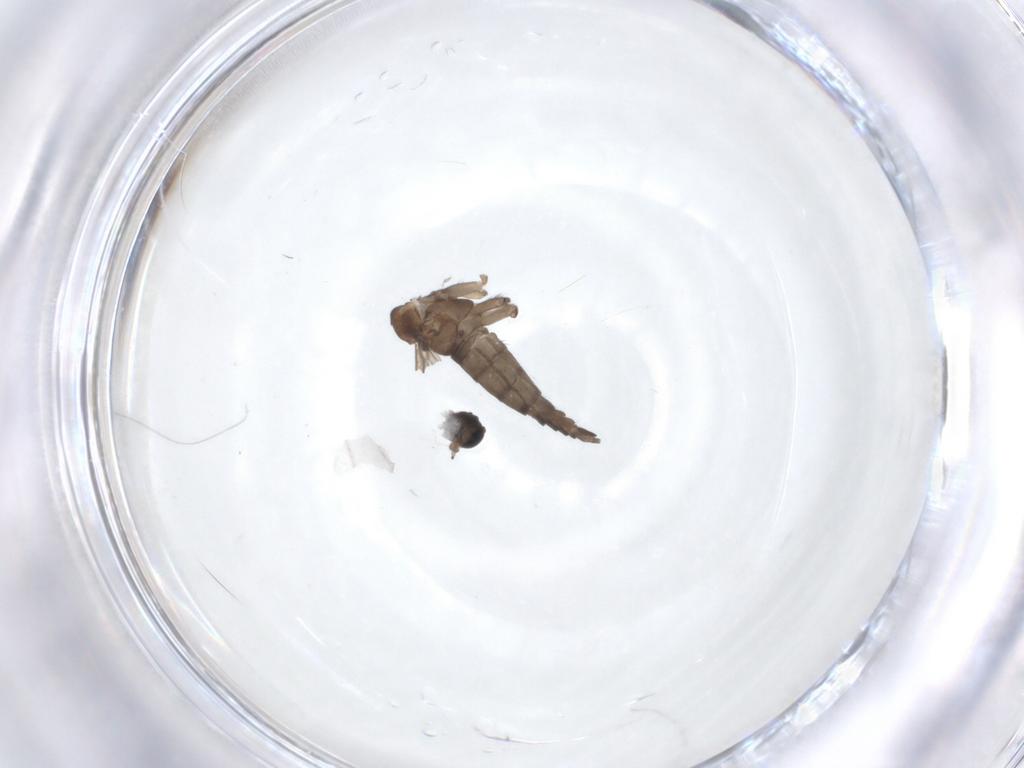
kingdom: Animalia
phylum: Arthropoda
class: Insecta
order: Diptera
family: Sciaridae
